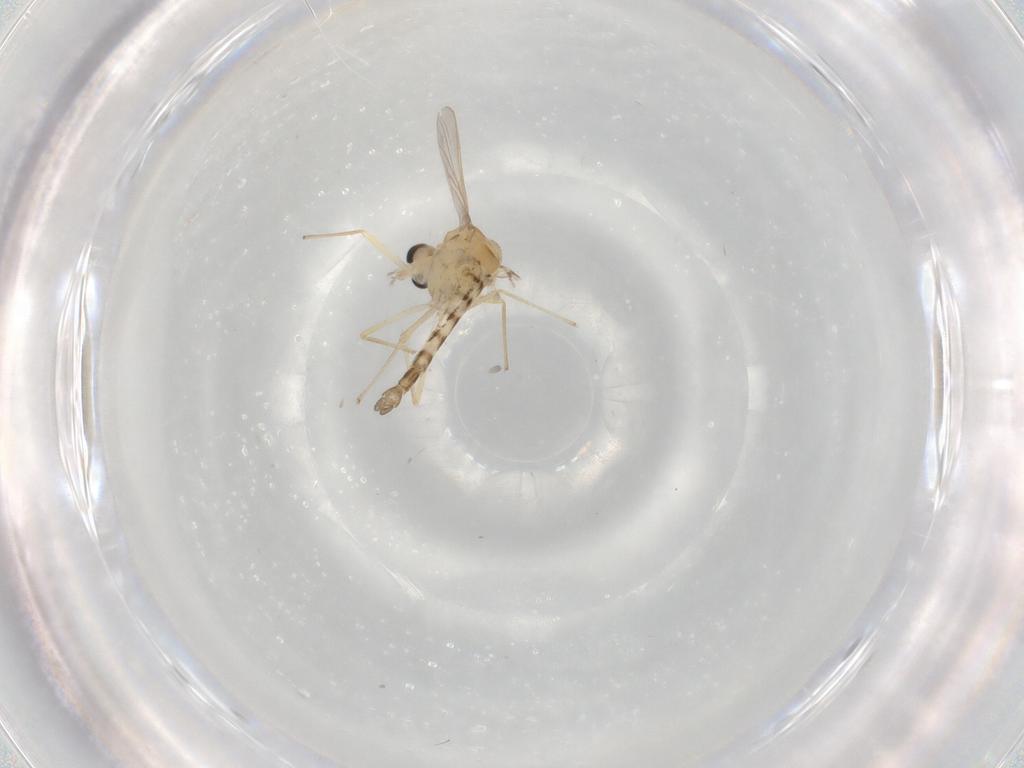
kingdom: Animalia
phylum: Arthropoda
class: Insecta
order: Diptera
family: Chironomidae
